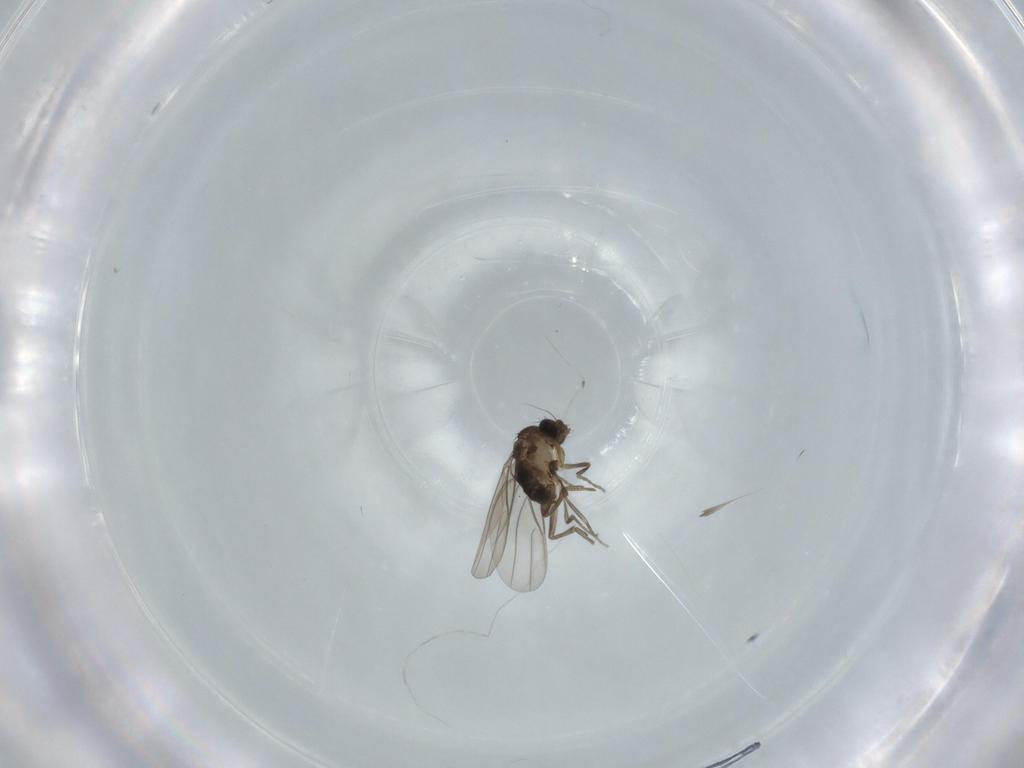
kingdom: Animalia
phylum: Arthropoda
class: Insecta
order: Diptera
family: Phoridae
